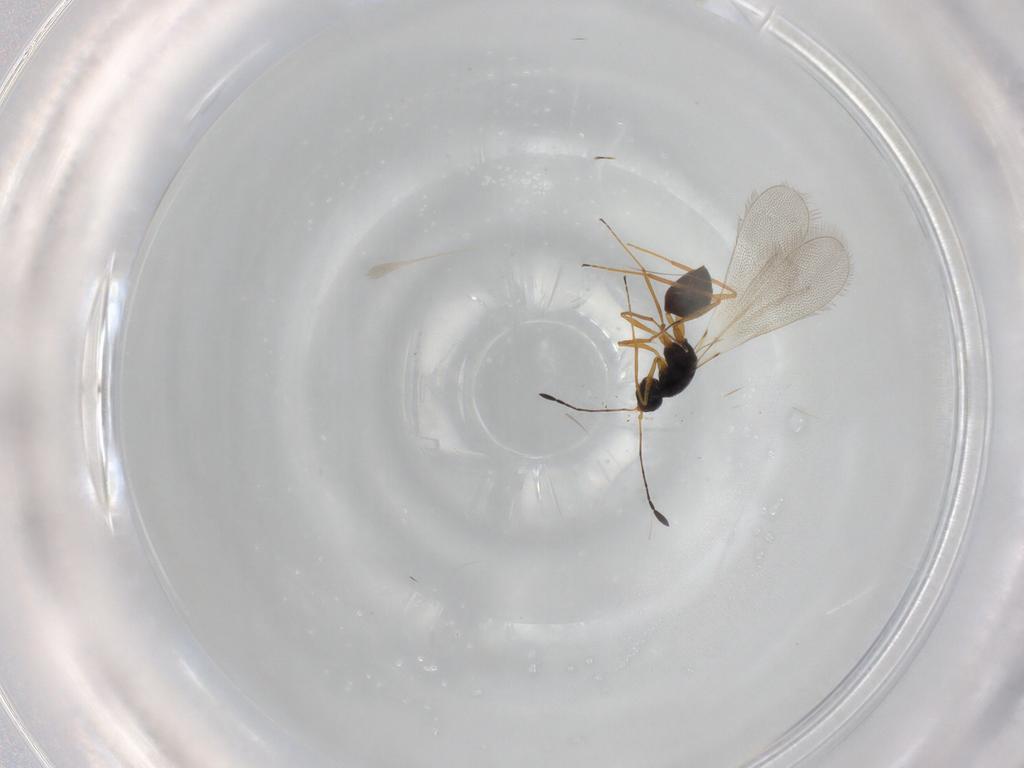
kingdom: Animalia
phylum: Arthropoda
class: Insecta
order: Hymenoptera
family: Mymaridae
